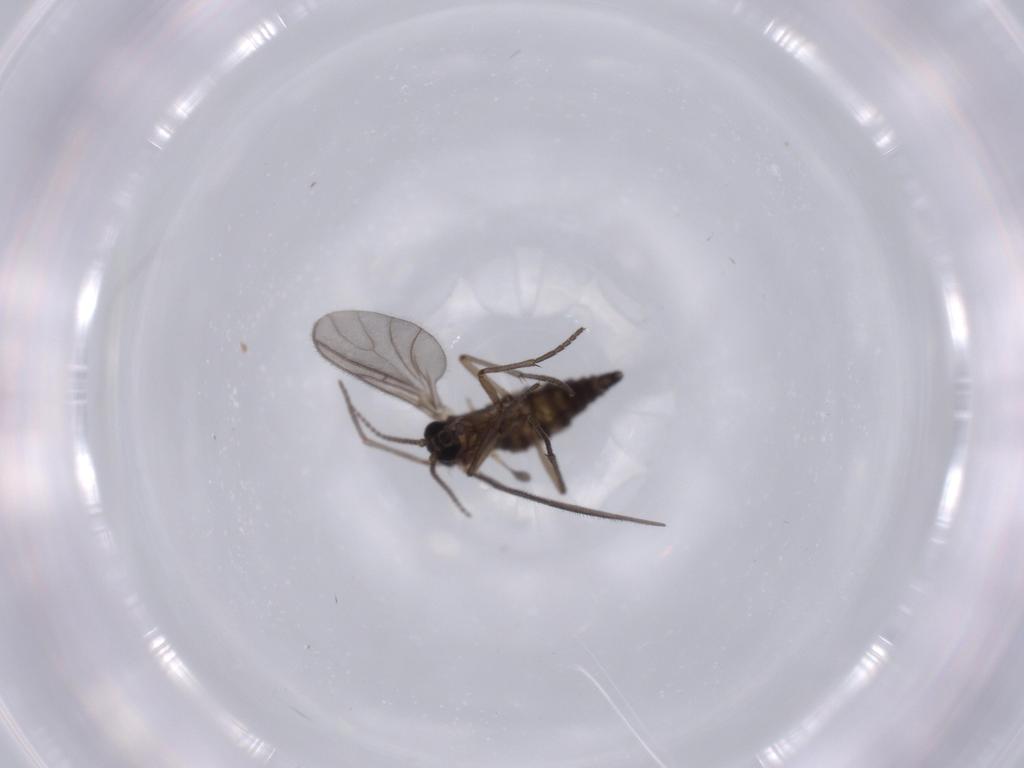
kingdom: Animalia
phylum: Arthropoda
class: Insecta
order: Diptera
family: Sciaridae
